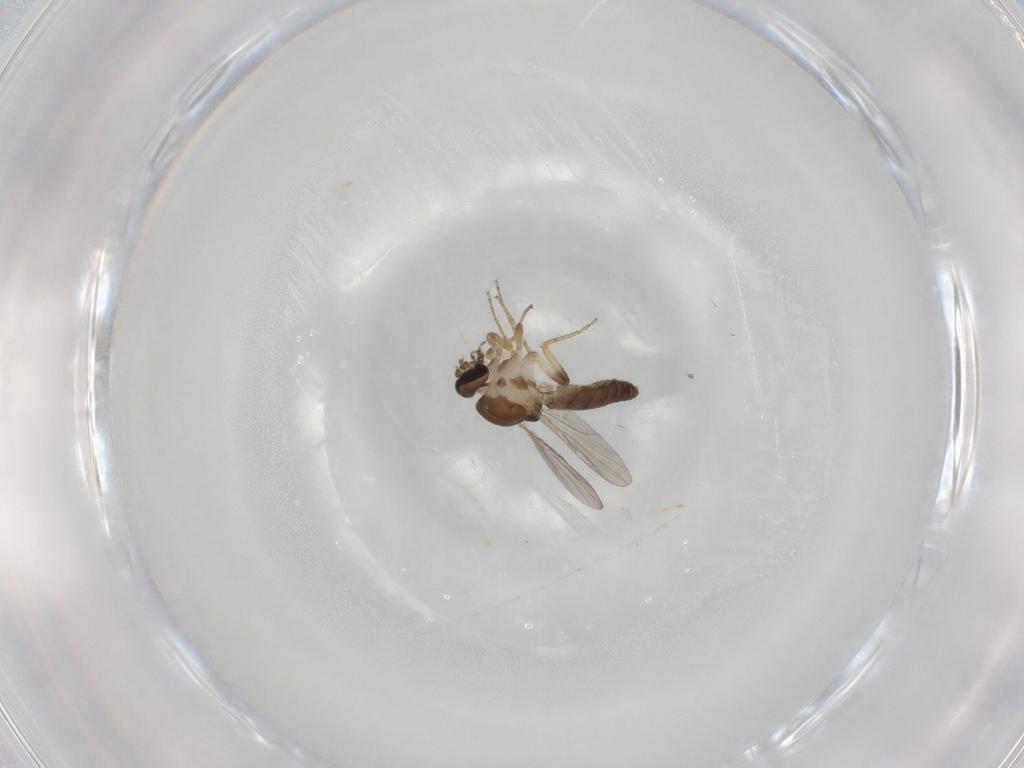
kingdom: Animalia
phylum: Arthropoda
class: Insecta
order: Diptera
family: Ceratopogonidae
